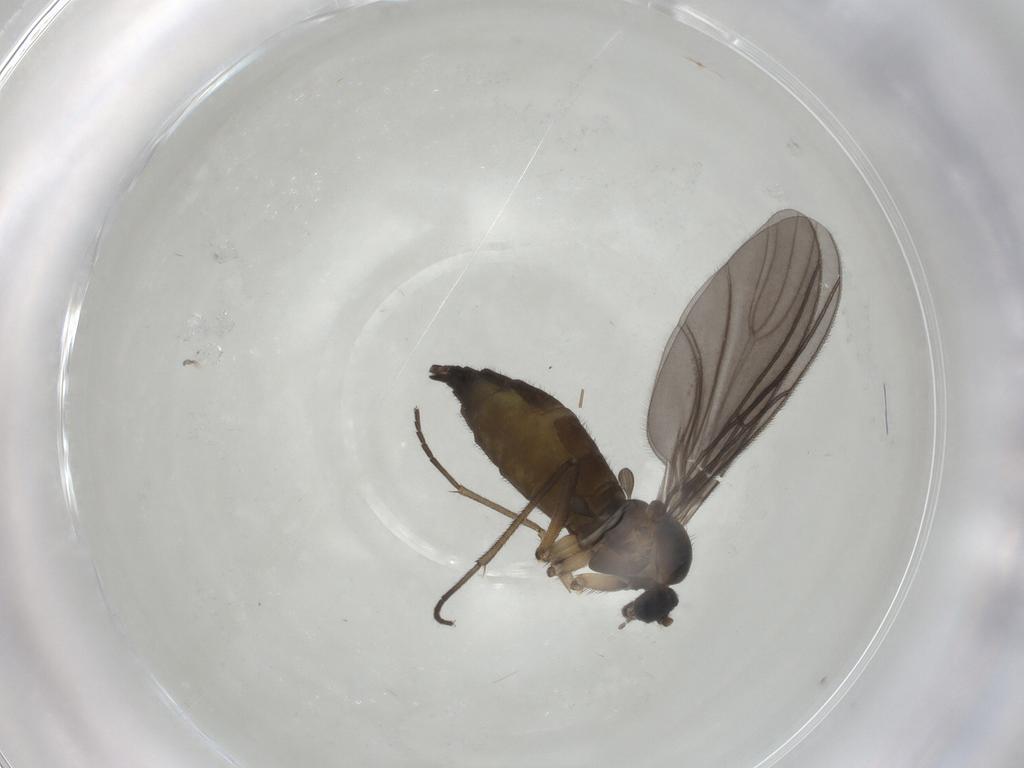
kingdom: Animalia
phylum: Arthropoda
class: Insecta
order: Diptera
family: Sciaridae
